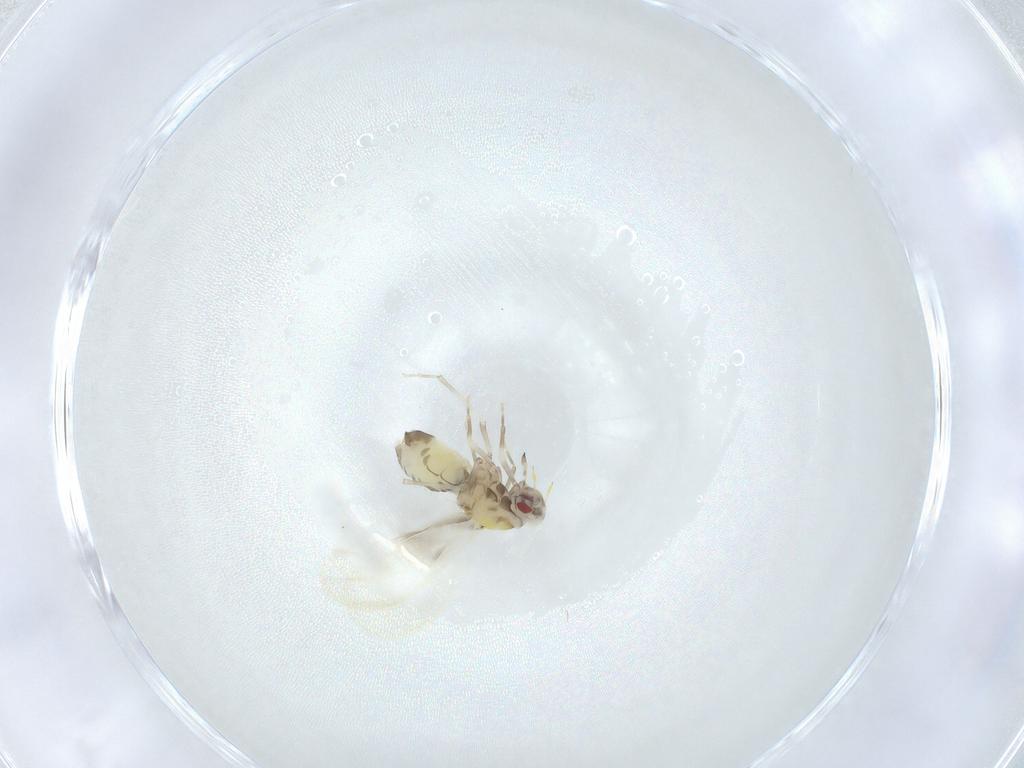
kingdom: Animalia
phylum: Arthropoda
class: Insecta
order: Hemiptera
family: Aleyrodidae
